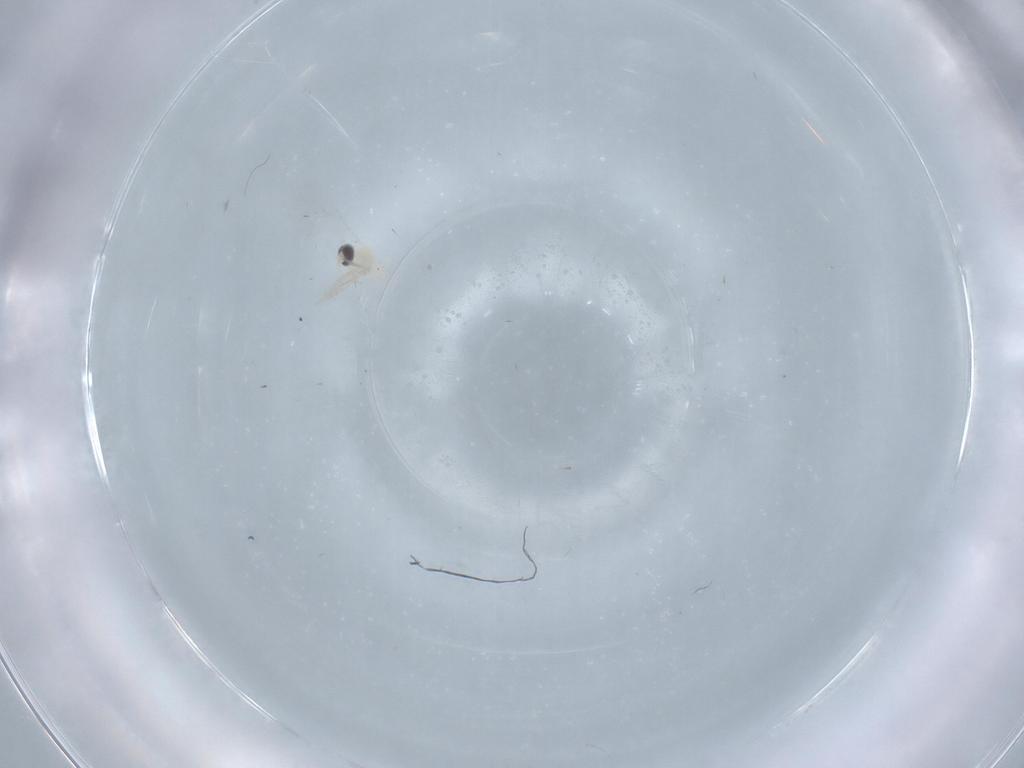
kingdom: Animalia
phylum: Arthropoda
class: Insecta
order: Diptera
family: Cecidomyiidae
